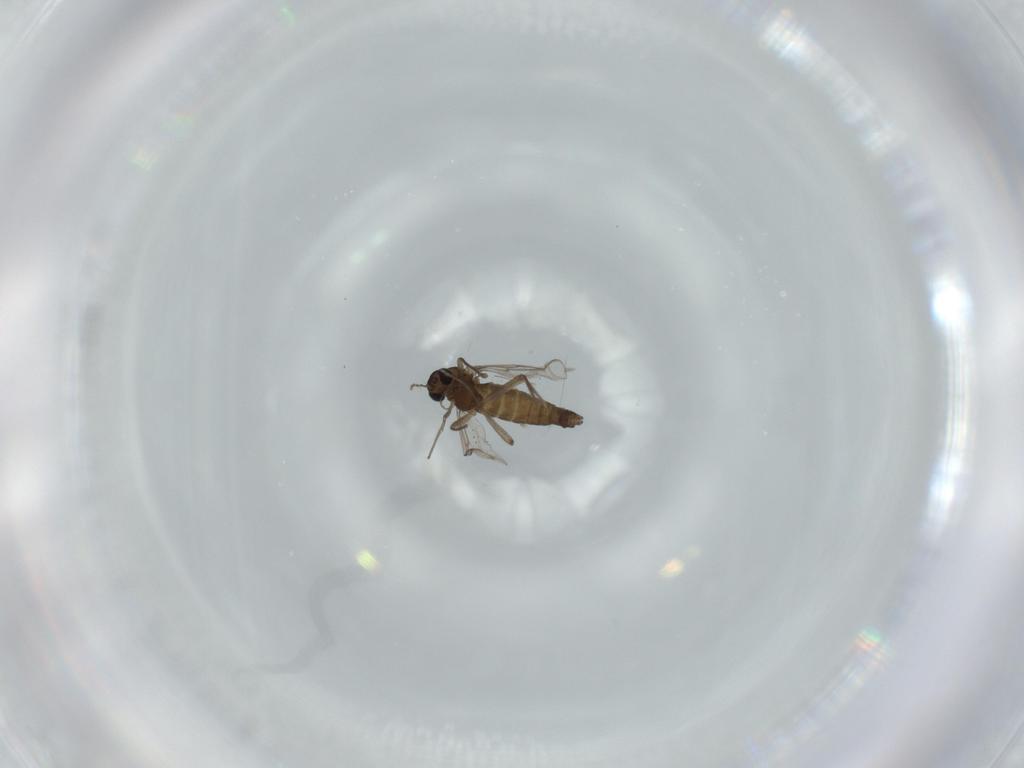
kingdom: Animalia
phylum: Arthropoda
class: Insecta
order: Diptera
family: Chironomidae
